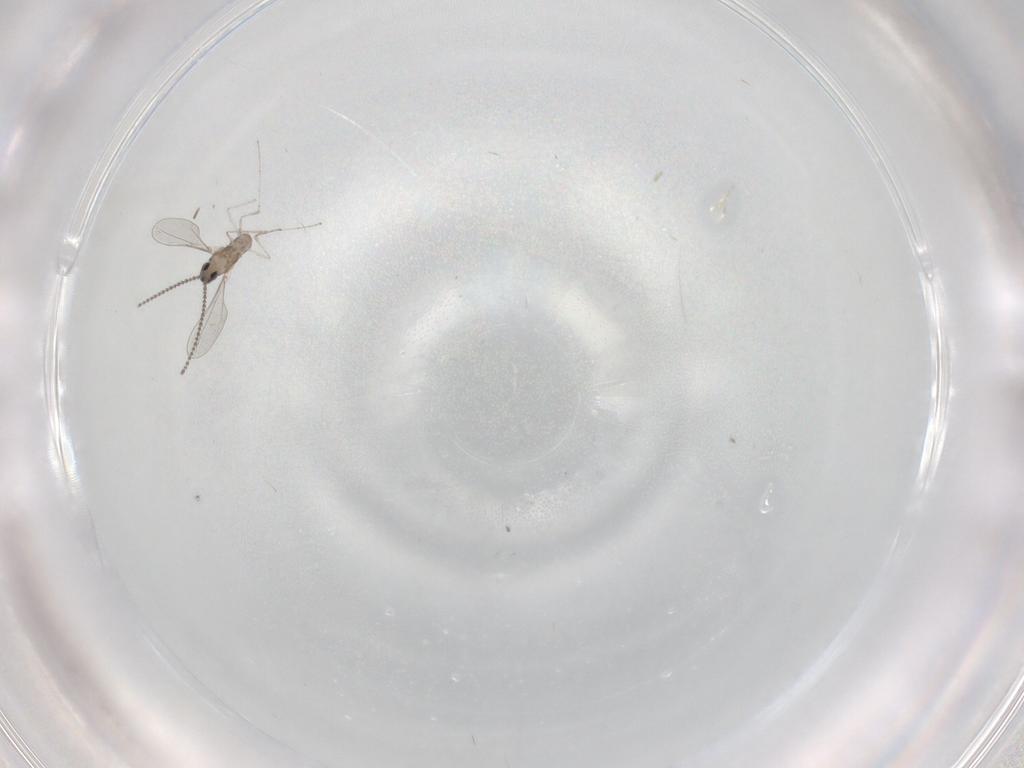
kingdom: Animalia
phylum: Arthropoda
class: Insecta
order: Diptera
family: Cecidomyiidae
